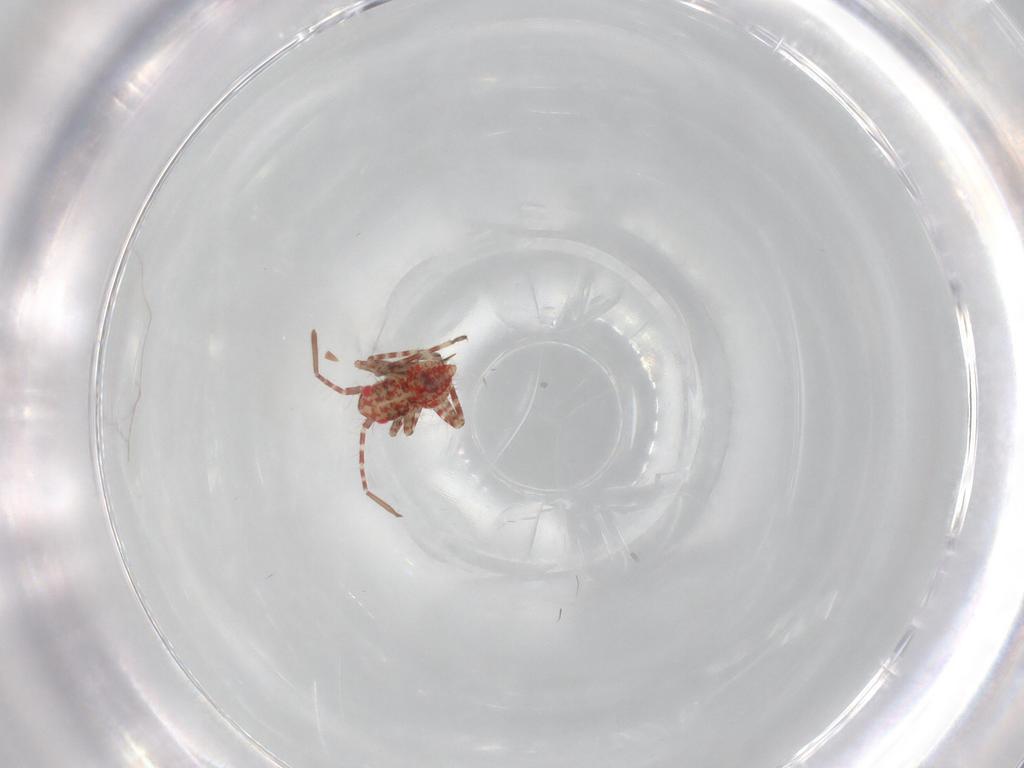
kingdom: Animalia
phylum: Arthropoda
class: Insecta
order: Hemiptera
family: Miridae
